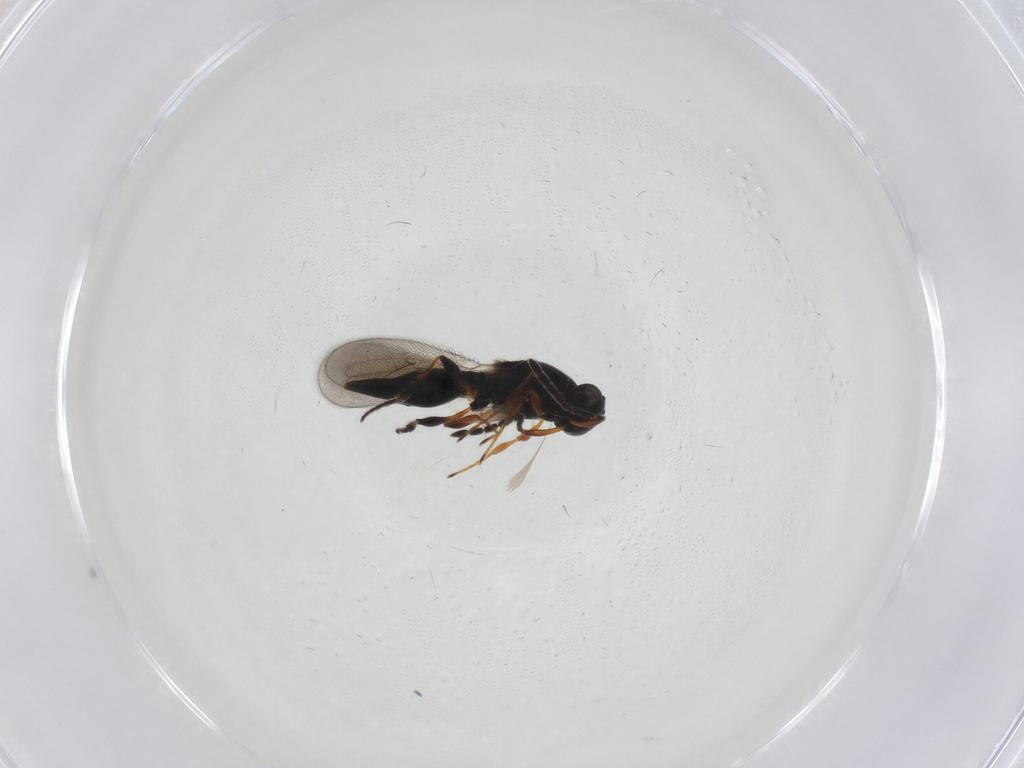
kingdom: Animalia
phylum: Arthropoda
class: Insecta
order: Hymenoptera
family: Platygastridae
